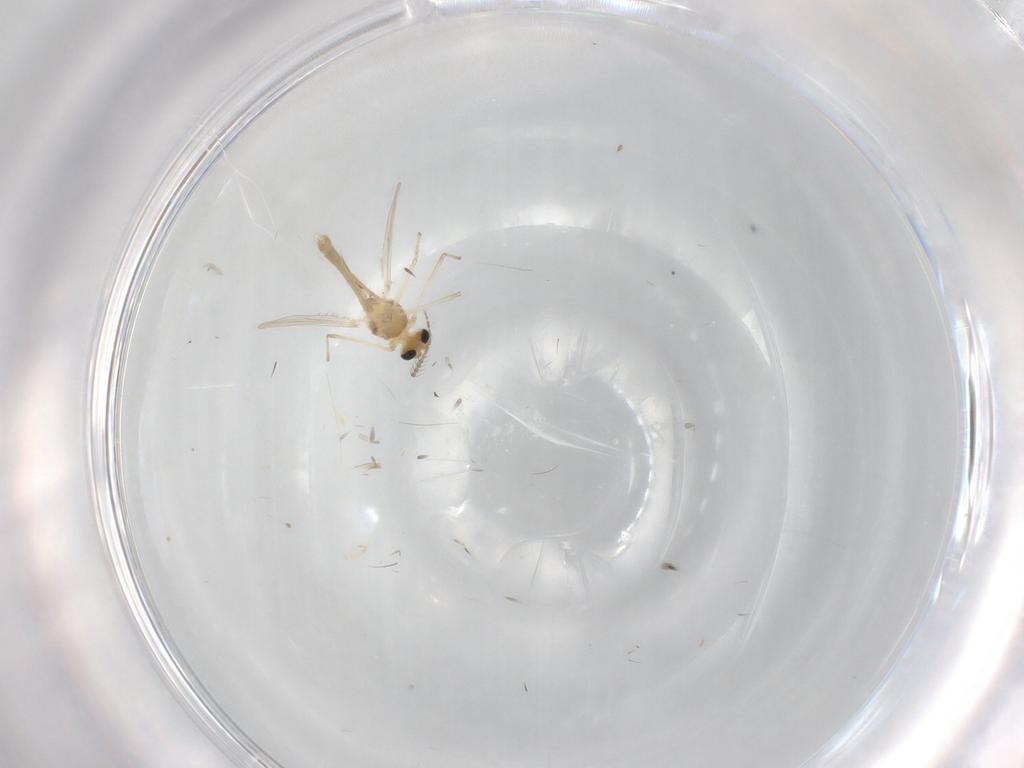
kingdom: Animalia
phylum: Arthropoda
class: Insecta
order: Diptera
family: Chironomidae
